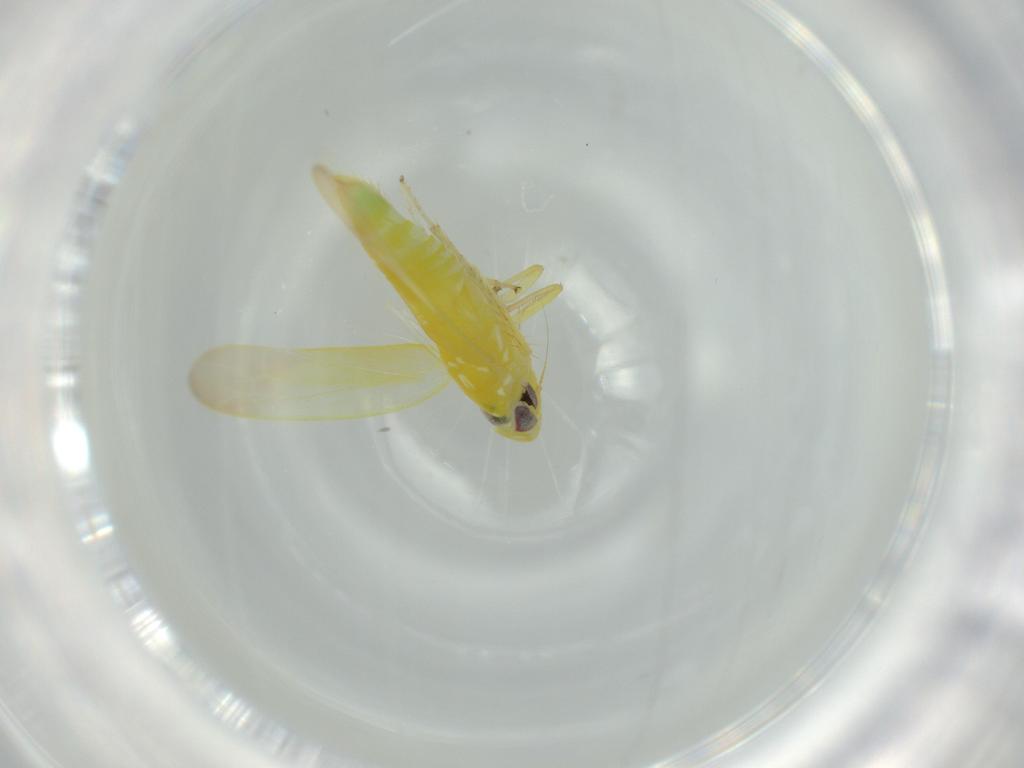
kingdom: Animalia
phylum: Arthropoda
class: Insecta
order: Hemiptera
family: Cicadellidae
